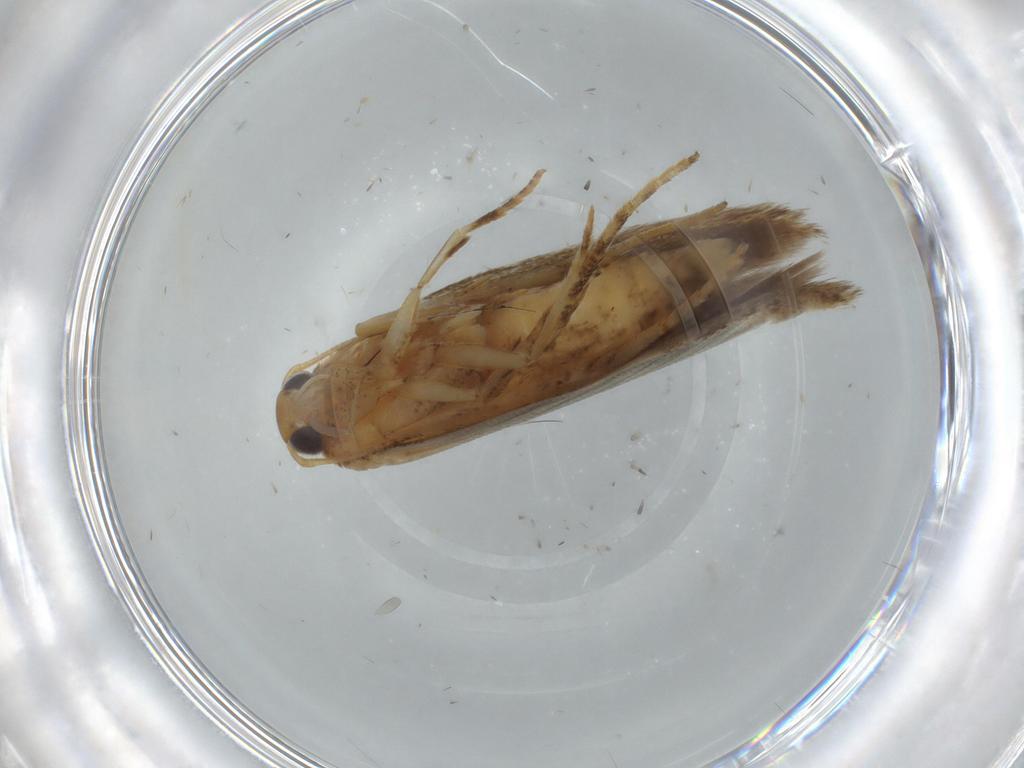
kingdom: Animalia
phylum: Arthropoda
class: Insecta
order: Lepidoptera
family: Gelechiidae
